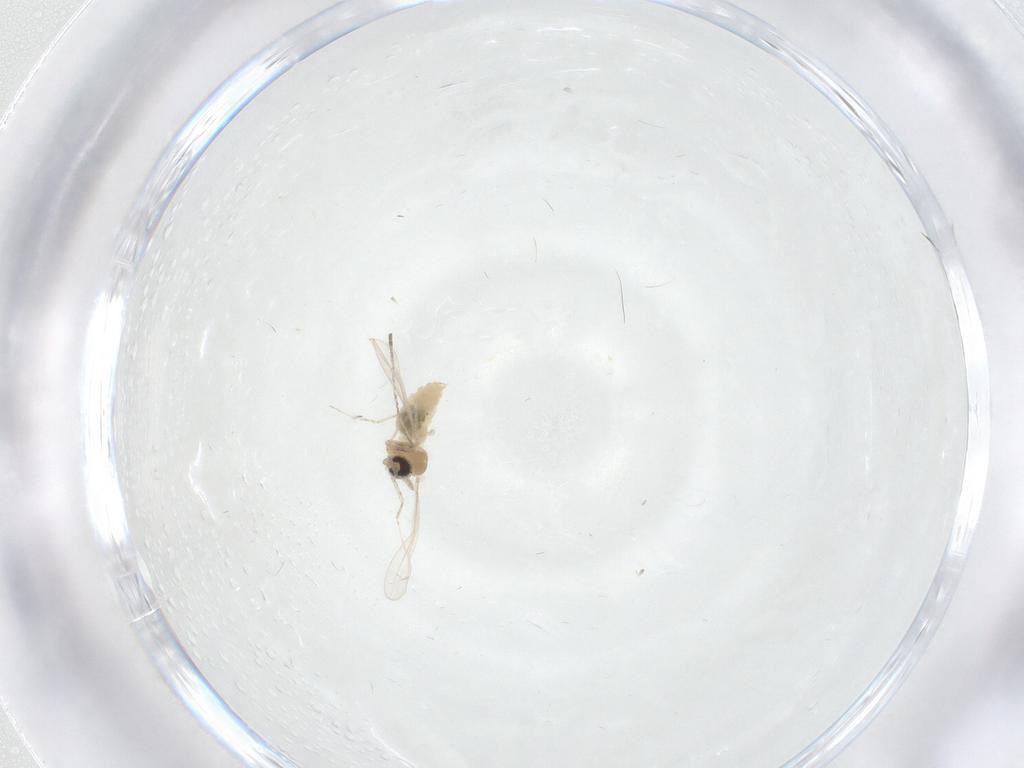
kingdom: Animalia
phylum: Arthropoda
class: Insecta
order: Diptera
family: Cecidomyiidae
